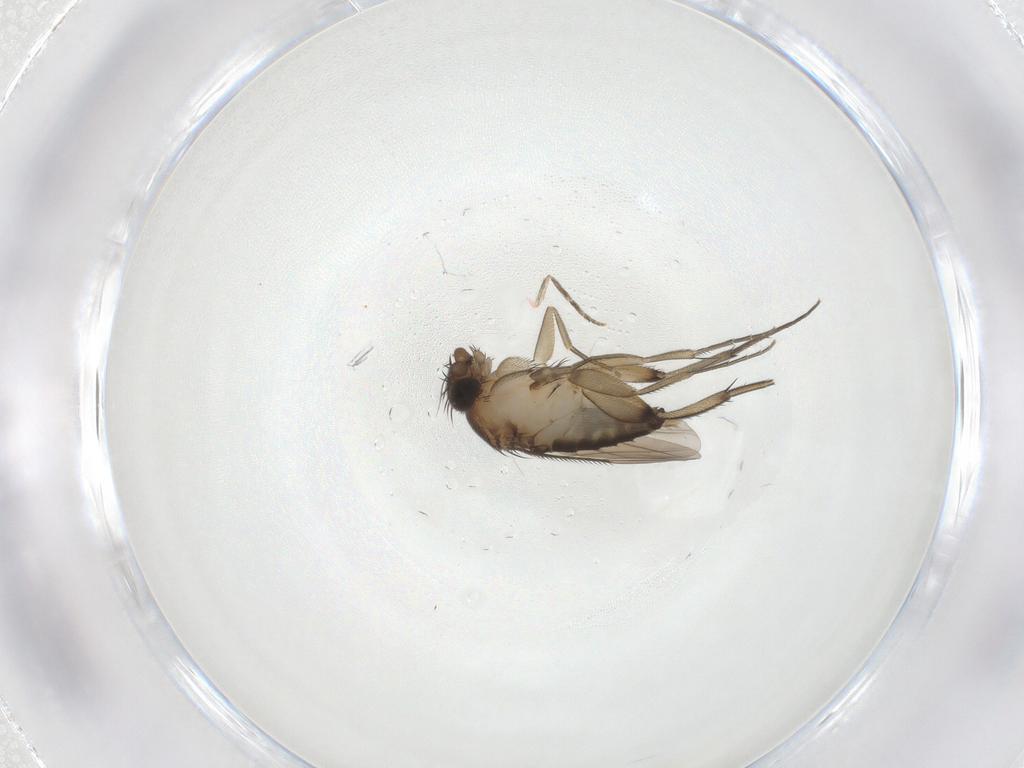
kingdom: Animalia
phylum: Arthropoda
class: Insecta
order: Diptera
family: Phoridae
